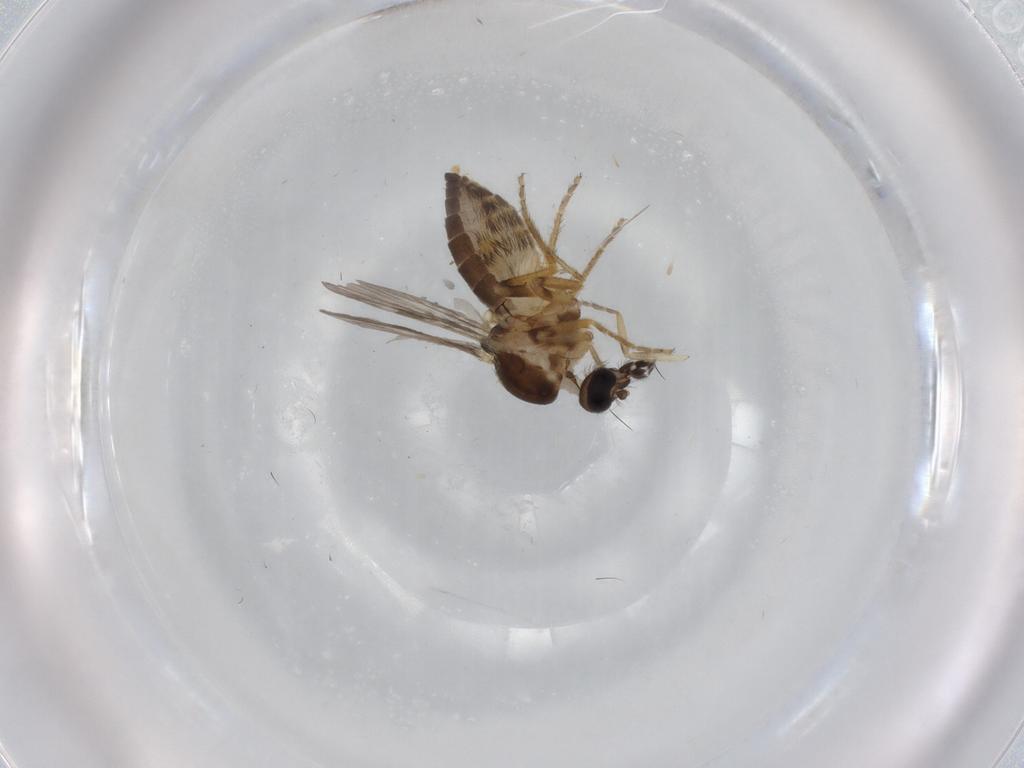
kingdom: Animalia
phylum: Arthropoda
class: Insecta
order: Diptera
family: Ceratopogonidae
